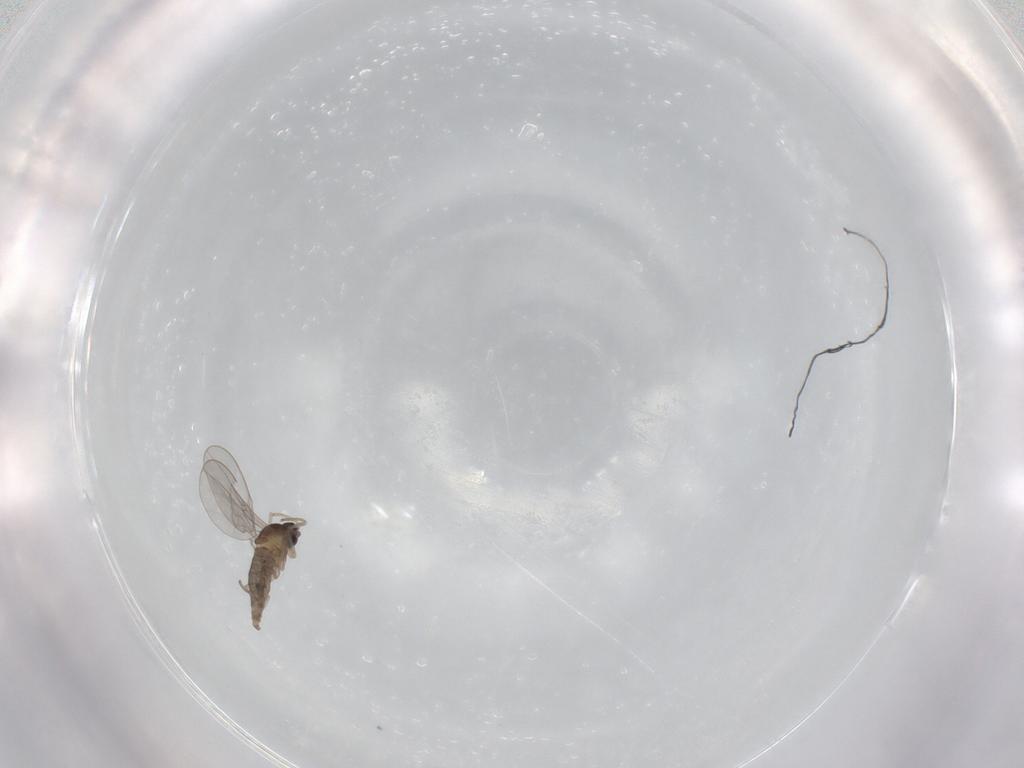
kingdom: Animalia
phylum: Arthropoda
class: Insecta
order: Diptera
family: Cecidomyiidae
